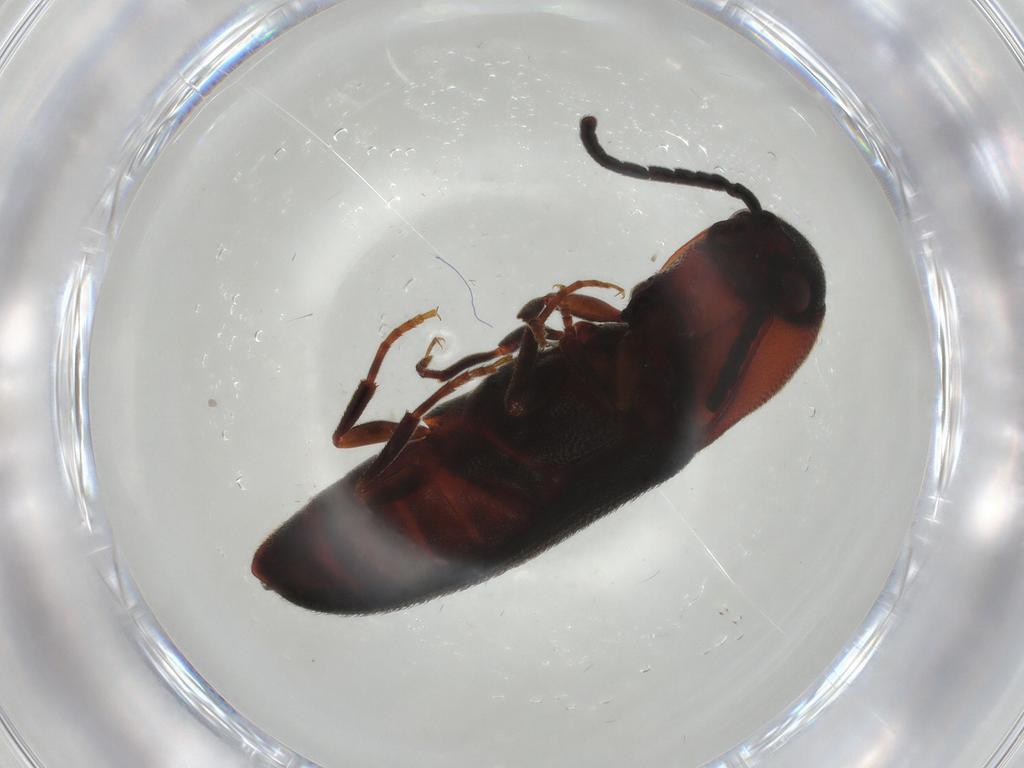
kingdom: Animalia
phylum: Arthropoda
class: Insecta
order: Coleoptera
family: Eucnemidae
